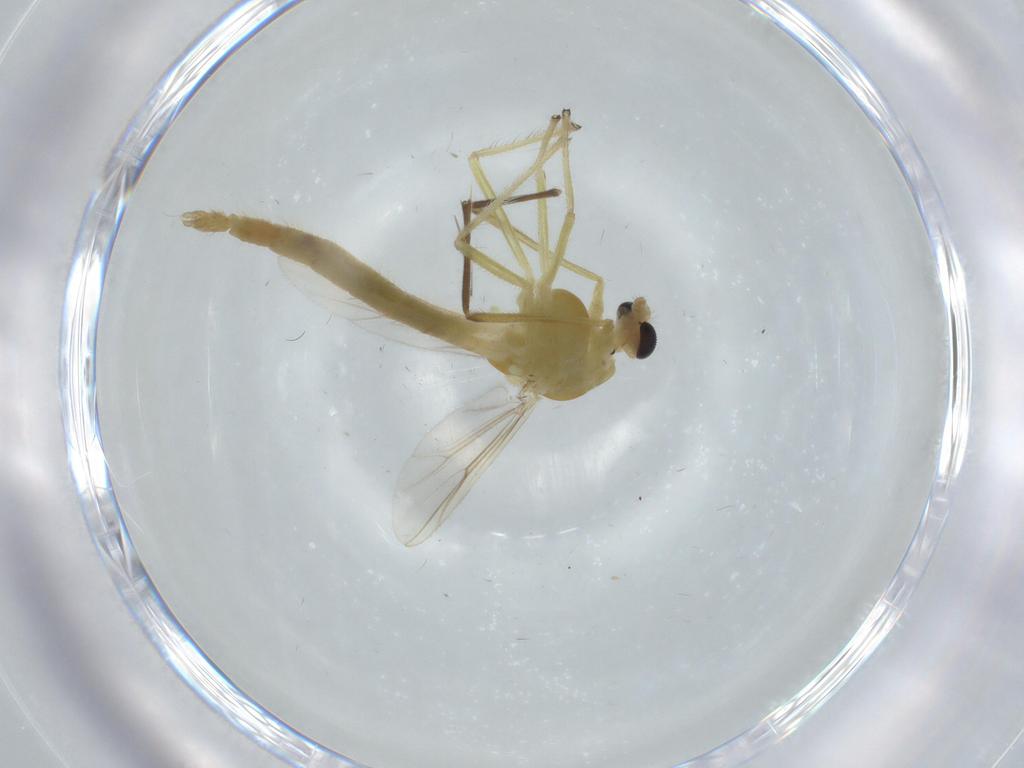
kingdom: Animalia
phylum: Arthropoda
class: Insecta
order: Diptera
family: Chironomidae
